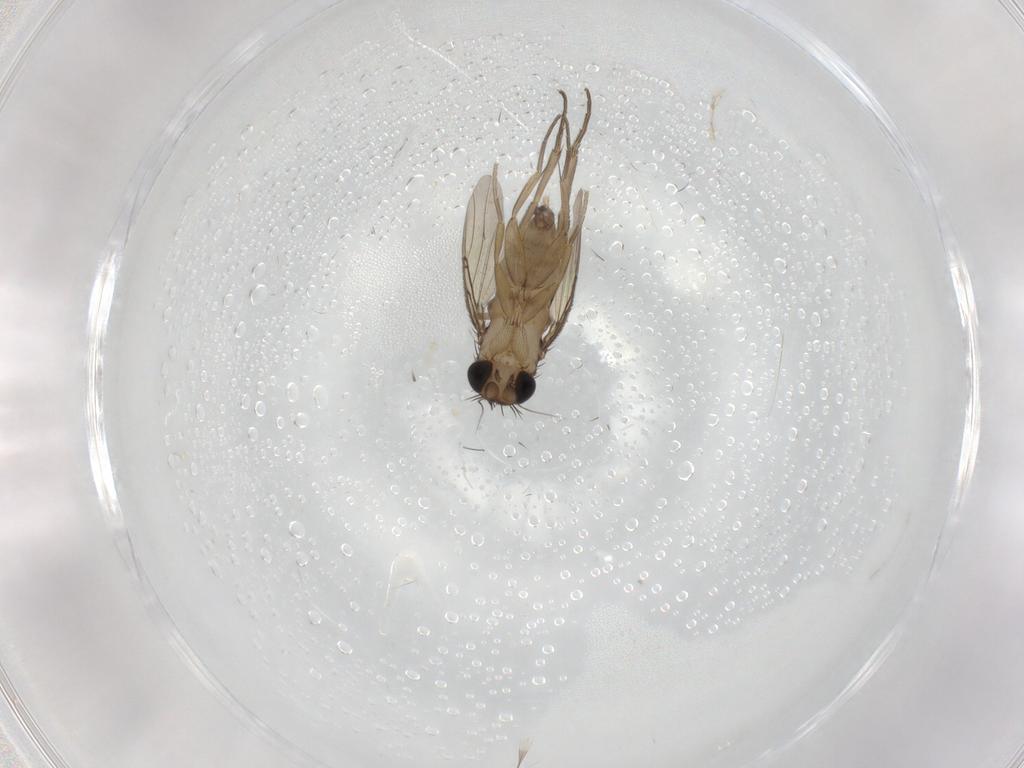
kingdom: Animalia
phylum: Arthropoda
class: Insecta
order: Diptera
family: Phoridae
